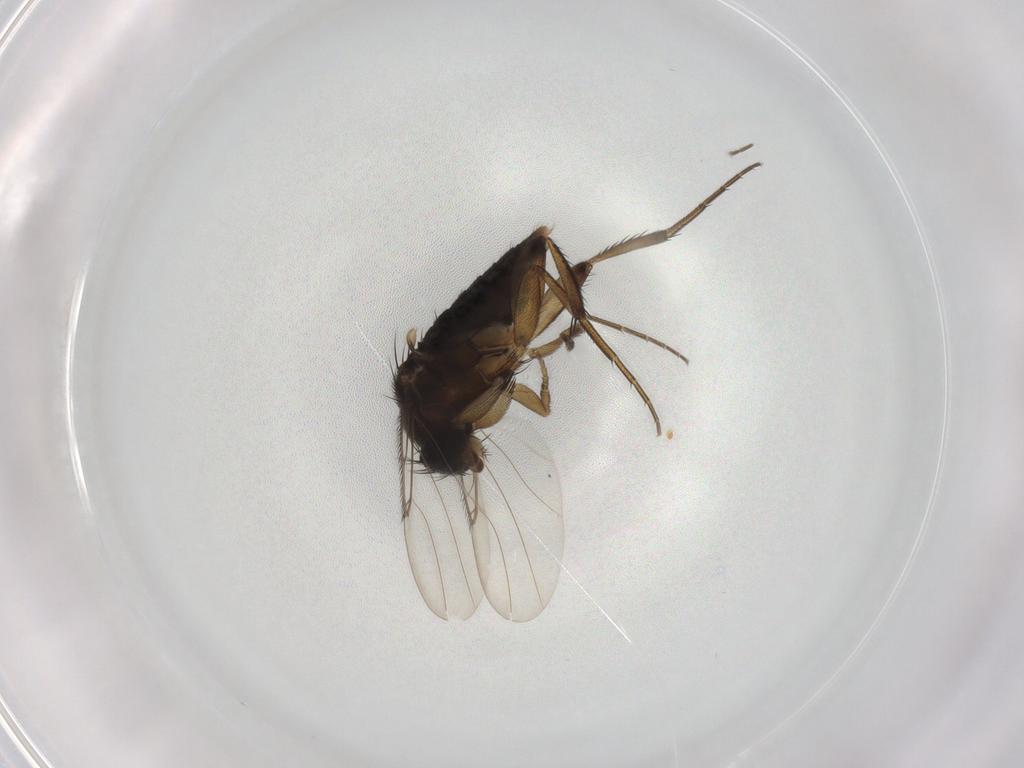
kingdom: Animalia
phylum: Arthropoda
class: Insecta
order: Diptera
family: Phoridae
